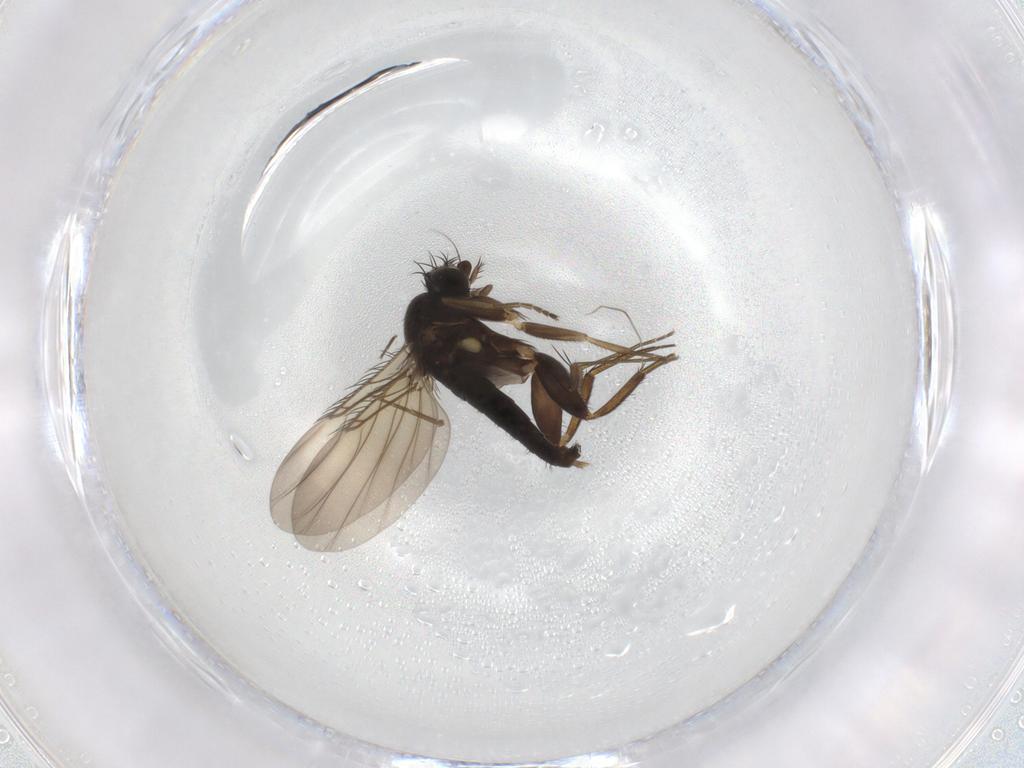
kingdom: Animalia
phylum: Arthropoda
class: Insecta
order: Diptera
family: Phoridae
